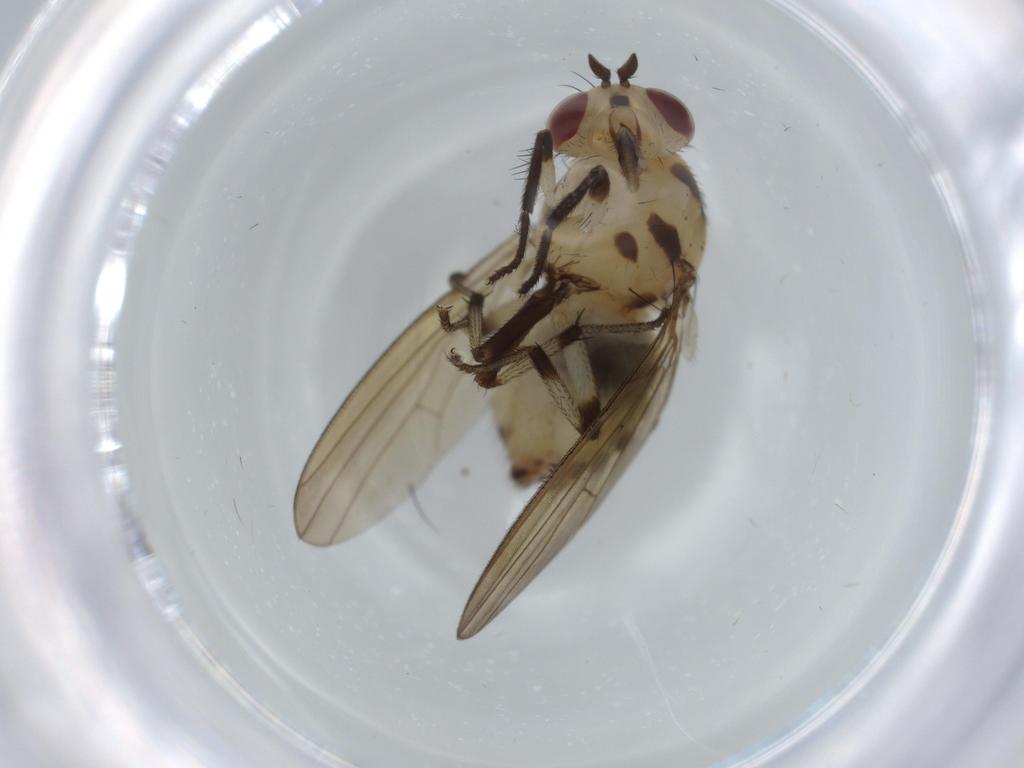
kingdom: Animalia
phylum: Arthropoda
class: Insecta
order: Diptera
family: Lauxaniidae
